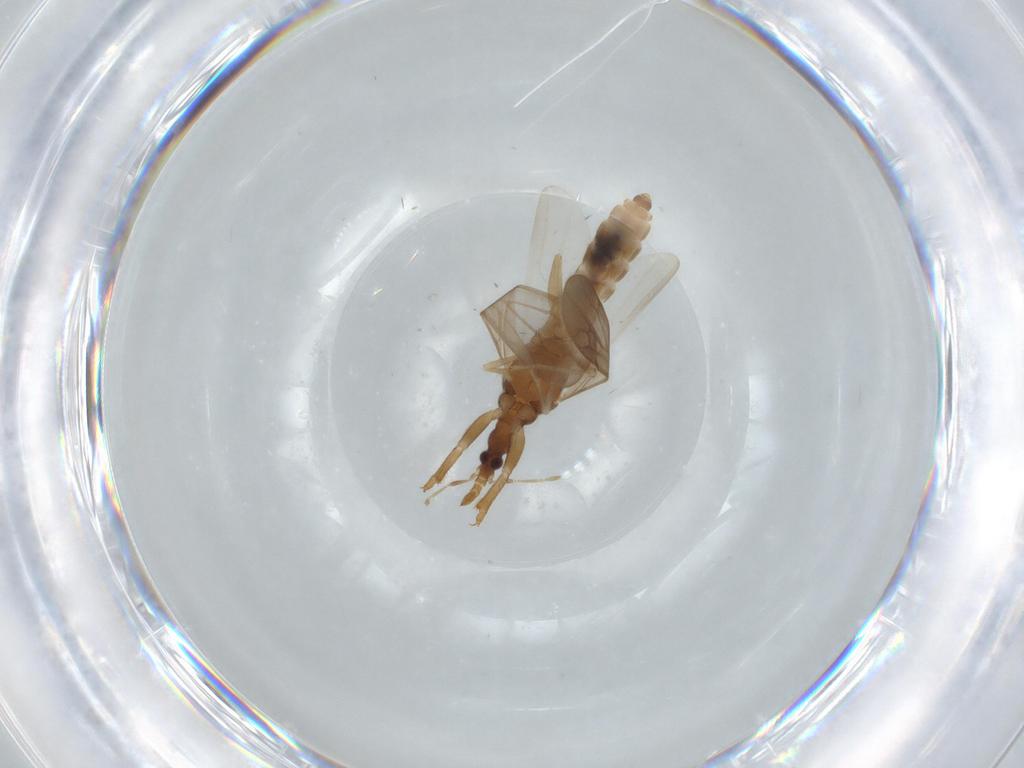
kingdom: Animalia
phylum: Arthropoda
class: Insecta
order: Hemiptera
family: Enicocephalidae
